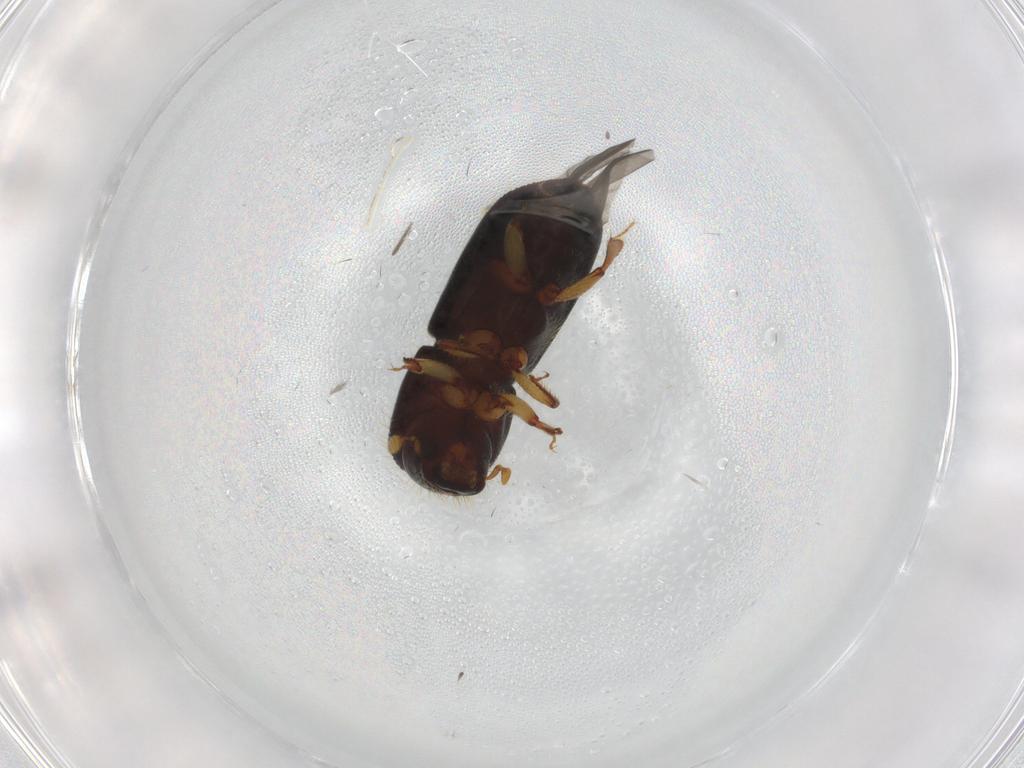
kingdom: Animalia
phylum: Arthropoda
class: Insecta
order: Coleoptera
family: Curculionidae
